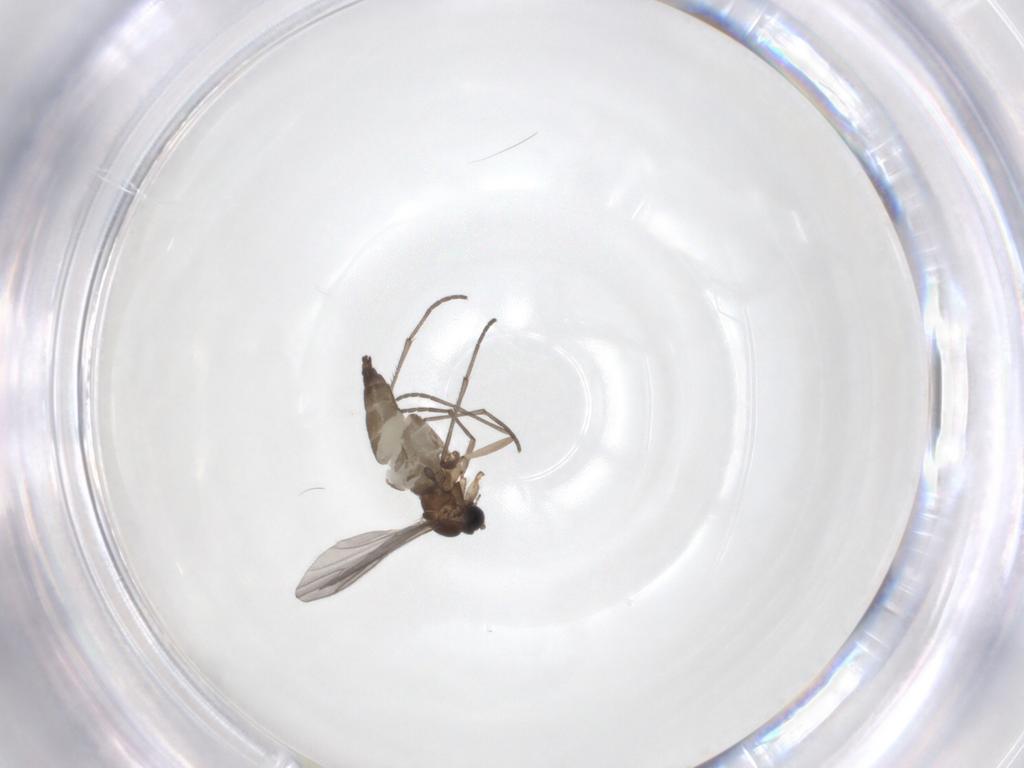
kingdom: Animalia
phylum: Arthropoda
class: Insecta
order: Diptera
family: Sciaridae
